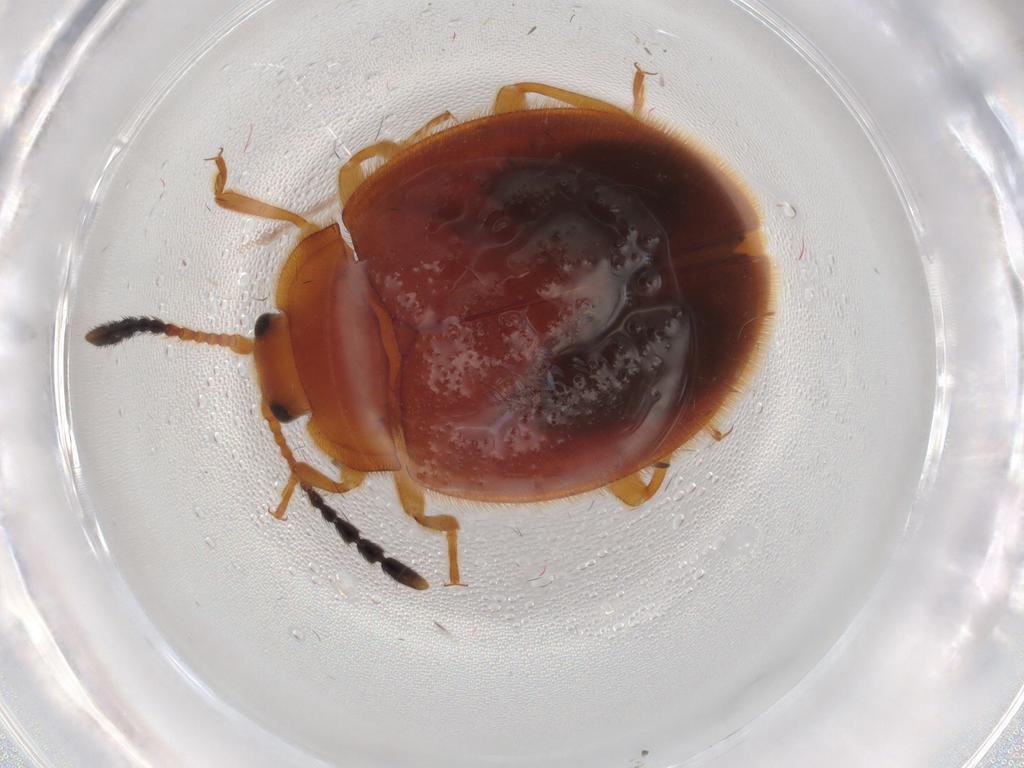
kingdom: Animalia
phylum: Arthropoda
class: Insecta
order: Coleoptera
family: Endomychidae
